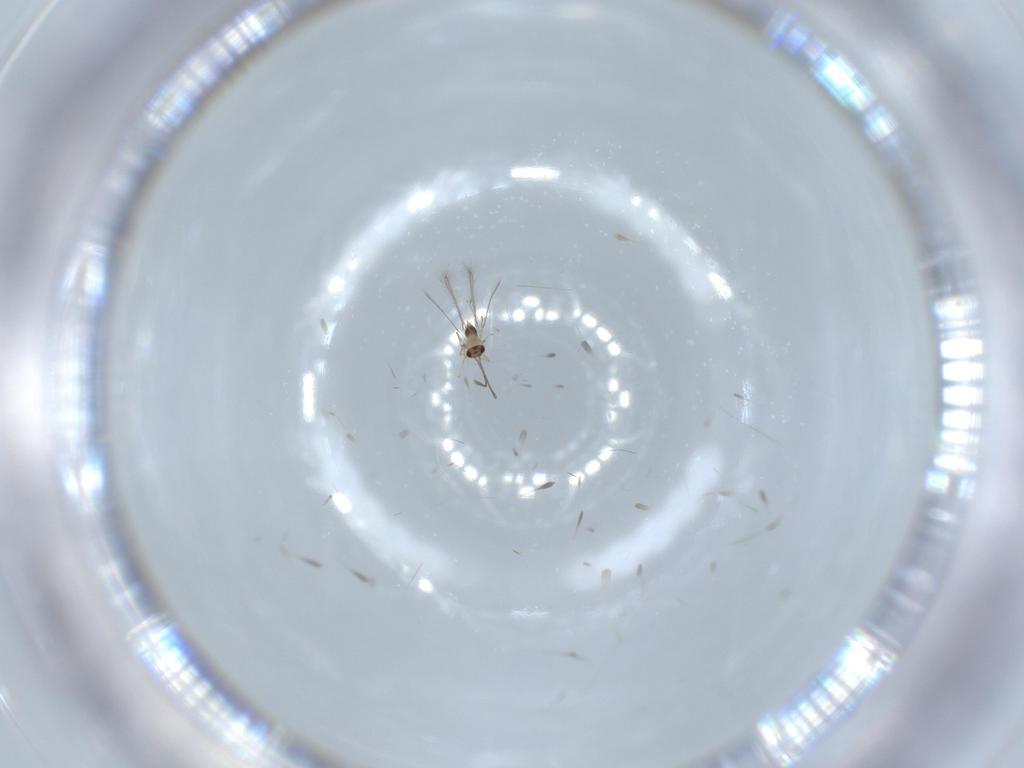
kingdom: Animalia
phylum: Arthropoda
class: Insecta
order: Hymenoptera
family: Mymaridae
